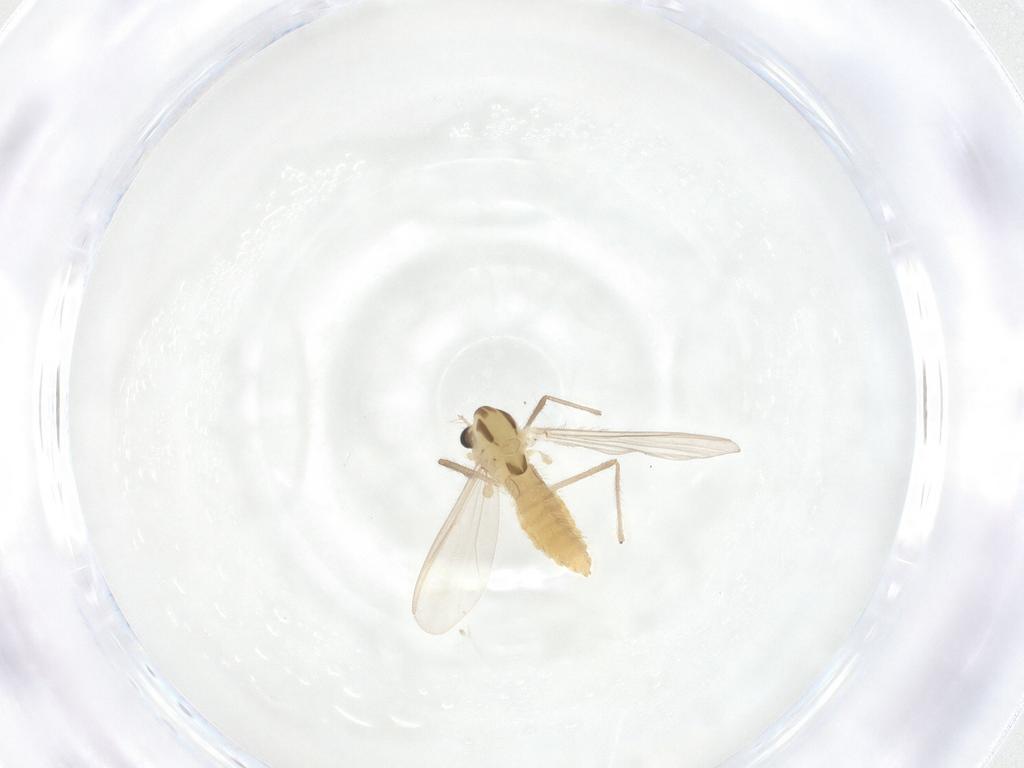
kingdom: Animalia
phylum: Arthropoda
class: Insecta
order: Diptera
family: Chironomidae
